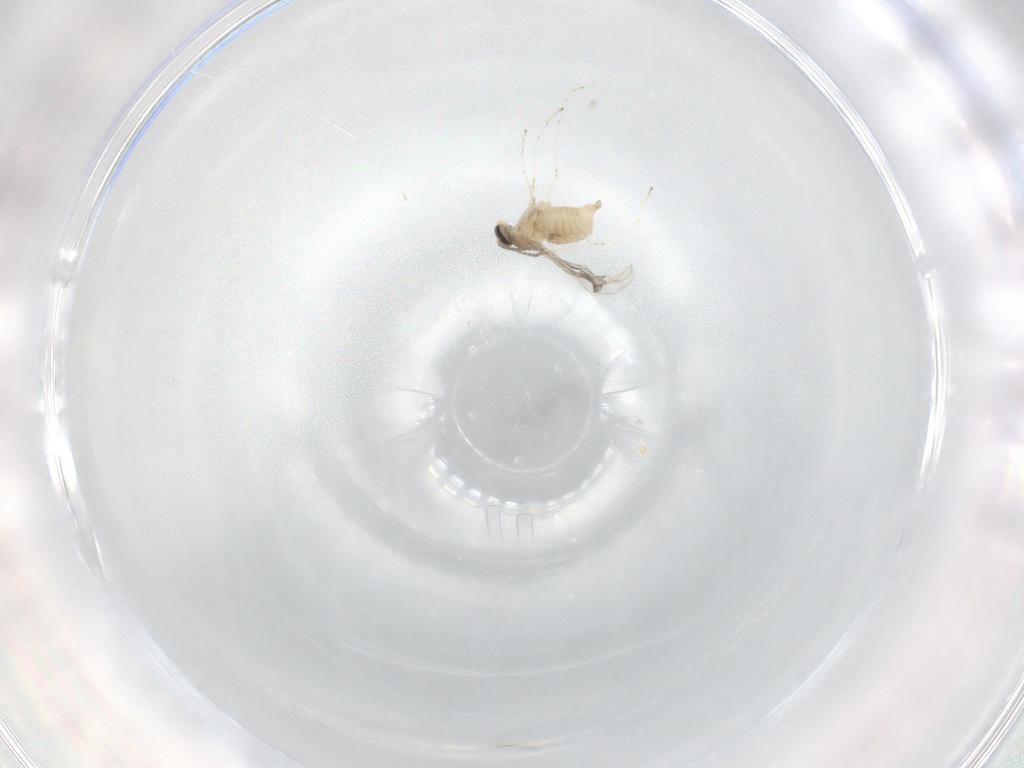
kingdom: Animalia
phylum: Arthropoda
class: Insecta
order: Diptera
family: Cecidomyiidae
